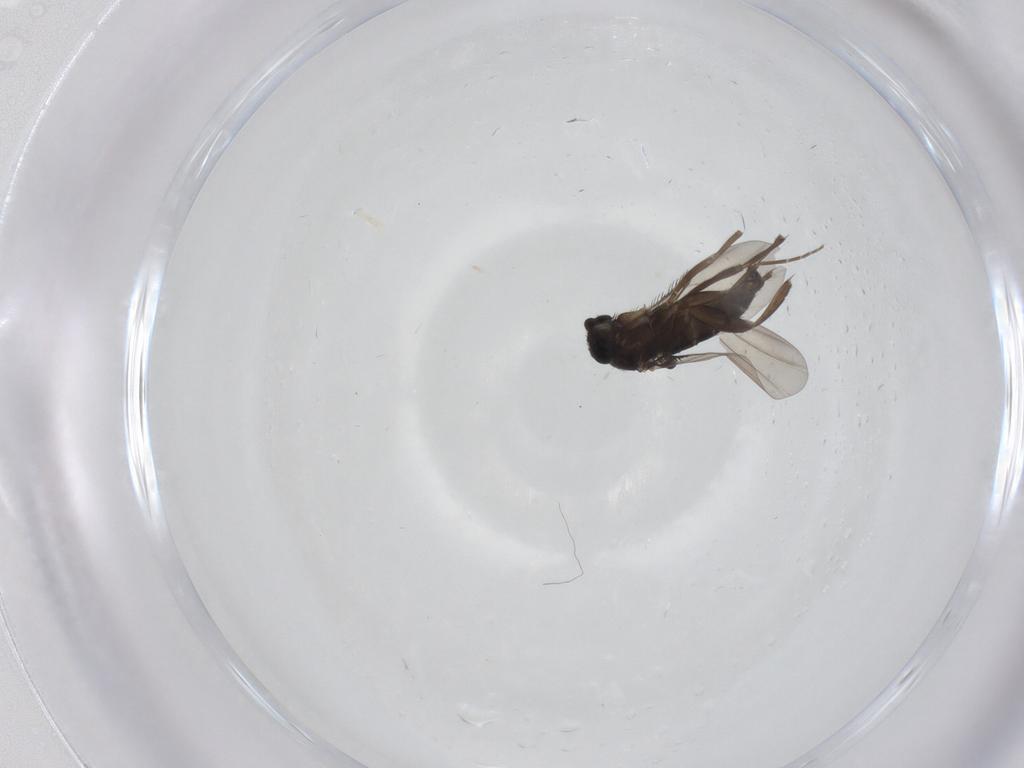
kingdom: Animalia
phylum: Arthropoda
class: Insecta
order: Diptera
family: Phoridae
